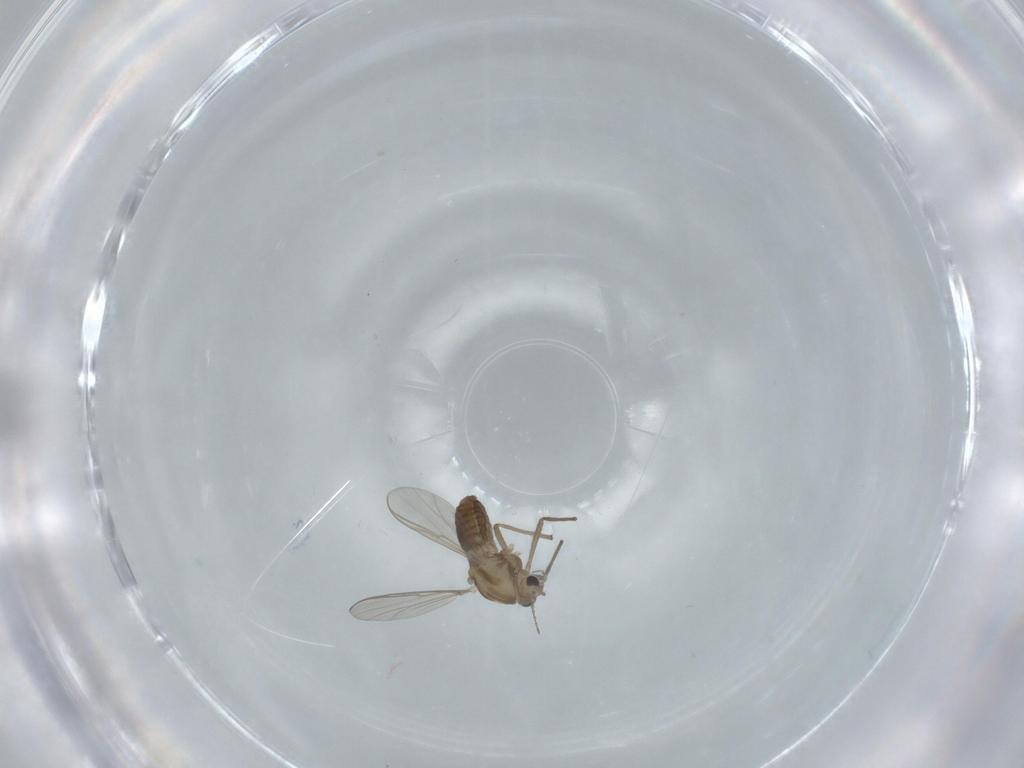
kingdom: Animalia
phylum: Arthropoda
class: Insecta
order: Diptera
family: Chironomidae
